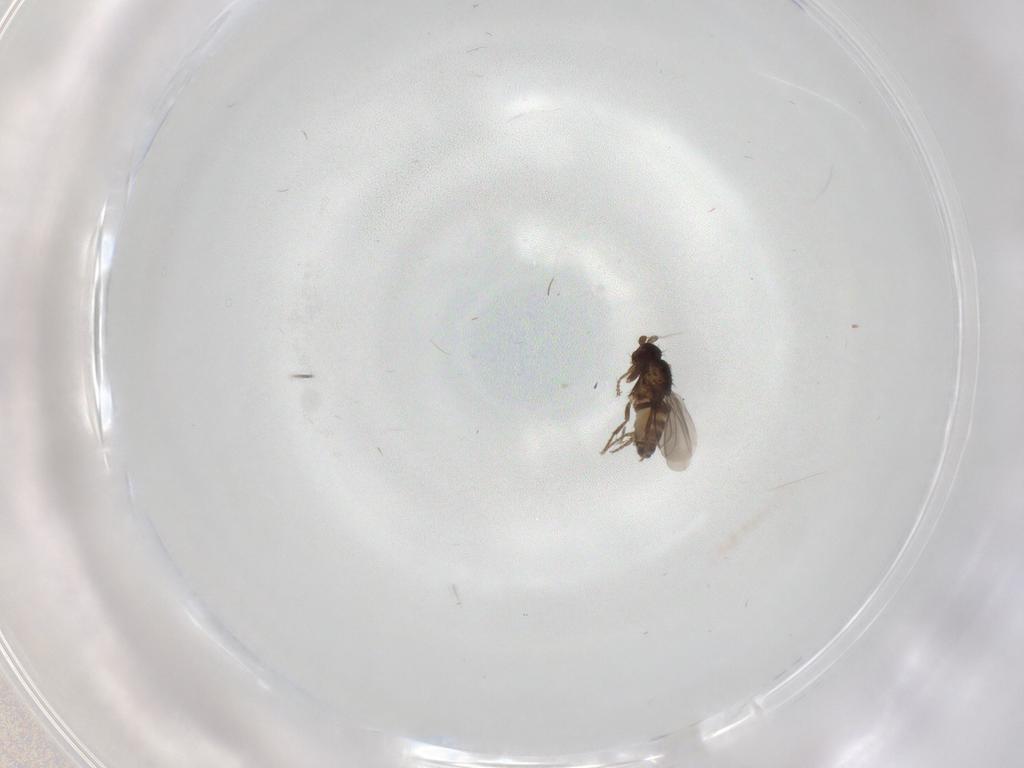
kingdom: Animalia
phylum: Arthropoda
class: Insecta
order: Diptera
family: Sphaeroceridae
